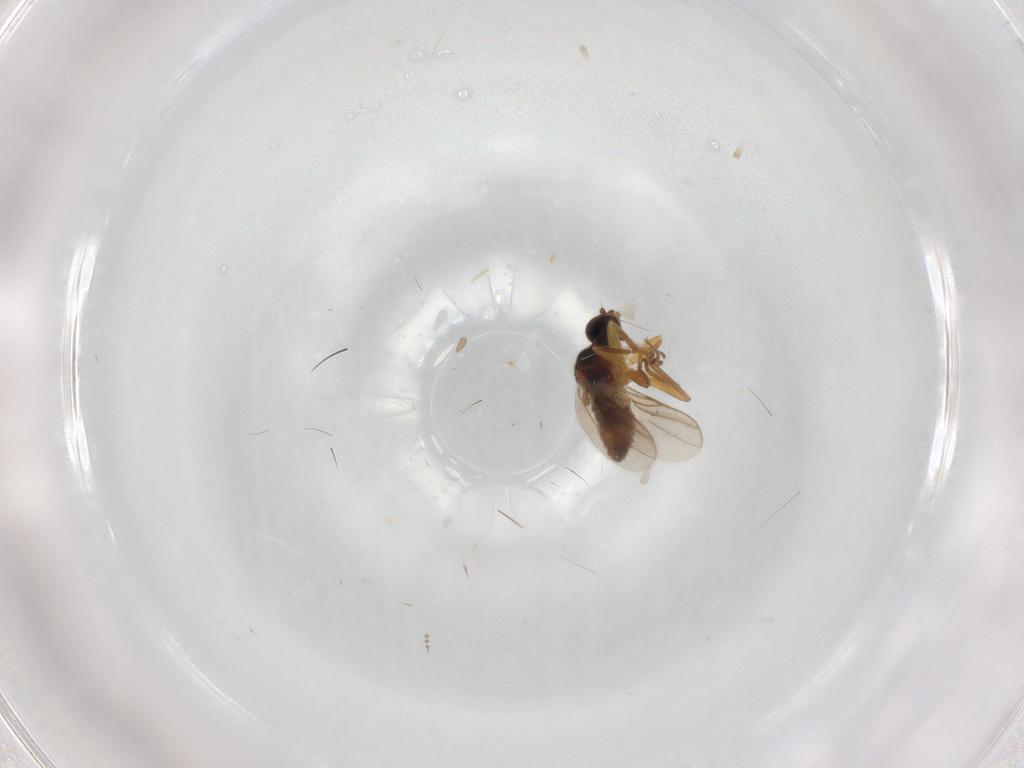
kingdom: Animalia
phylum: Arthropoda
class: Insecta
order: Diptera
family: Hybotidae
